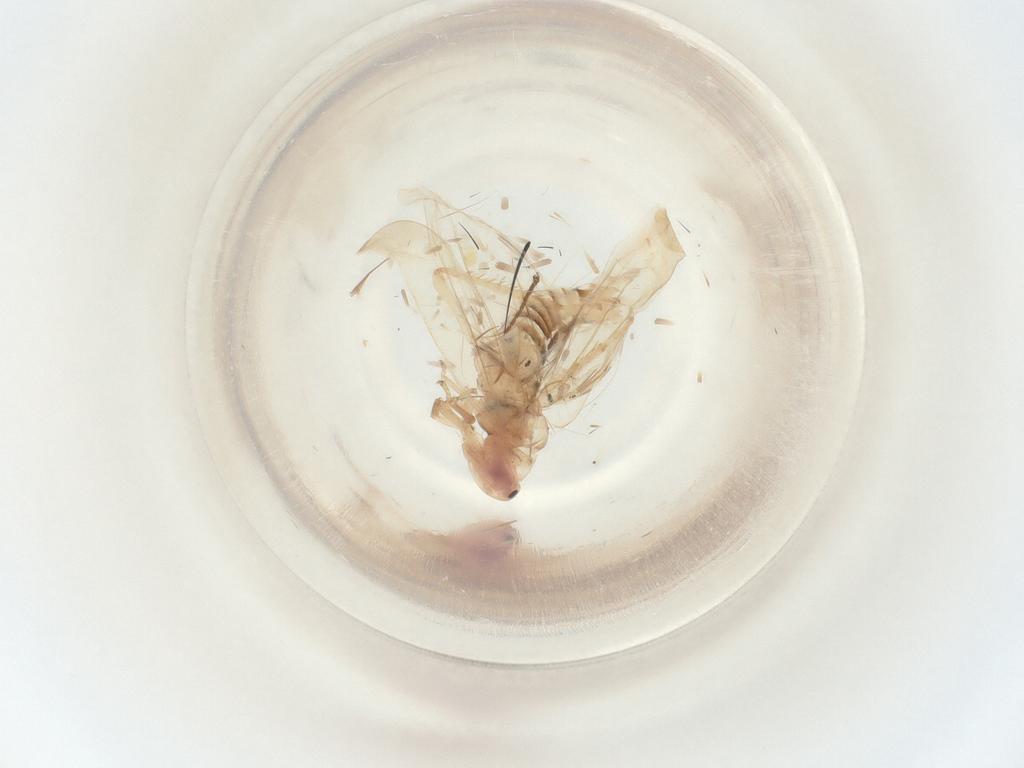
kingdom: Animalia
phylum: Arthropoda
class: Insecta
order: Hemiptera
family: Cicadellidae
